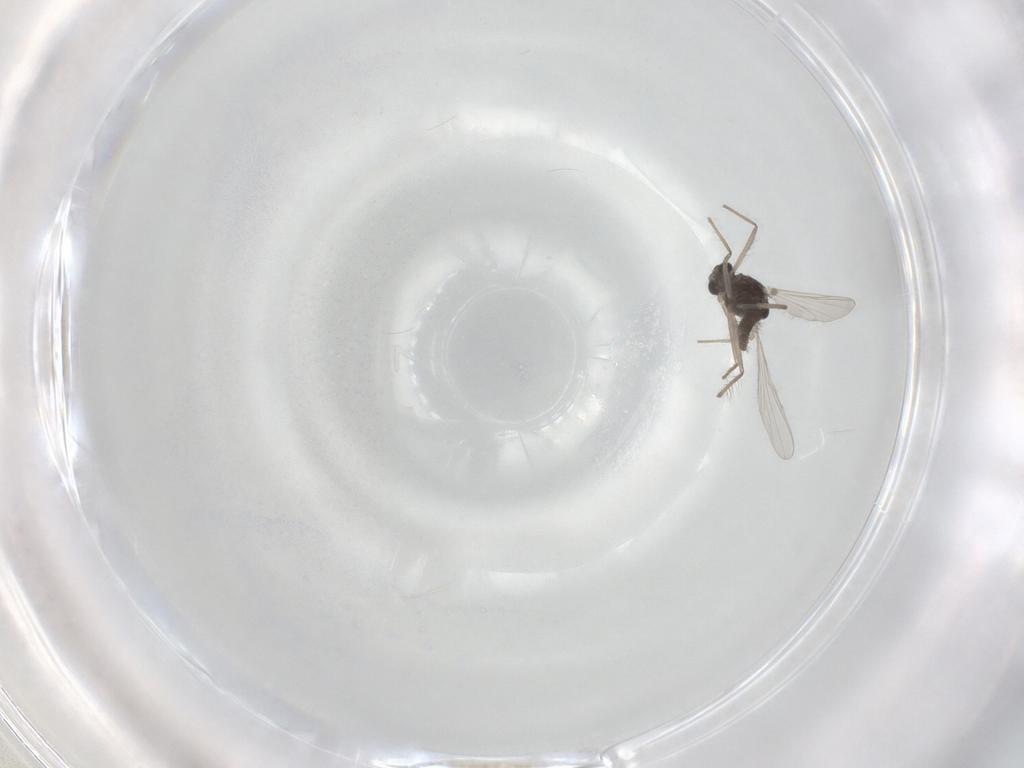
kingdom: Animalia
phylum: Arthropoda
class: Insecta
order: Diptera
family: Chironomidae
